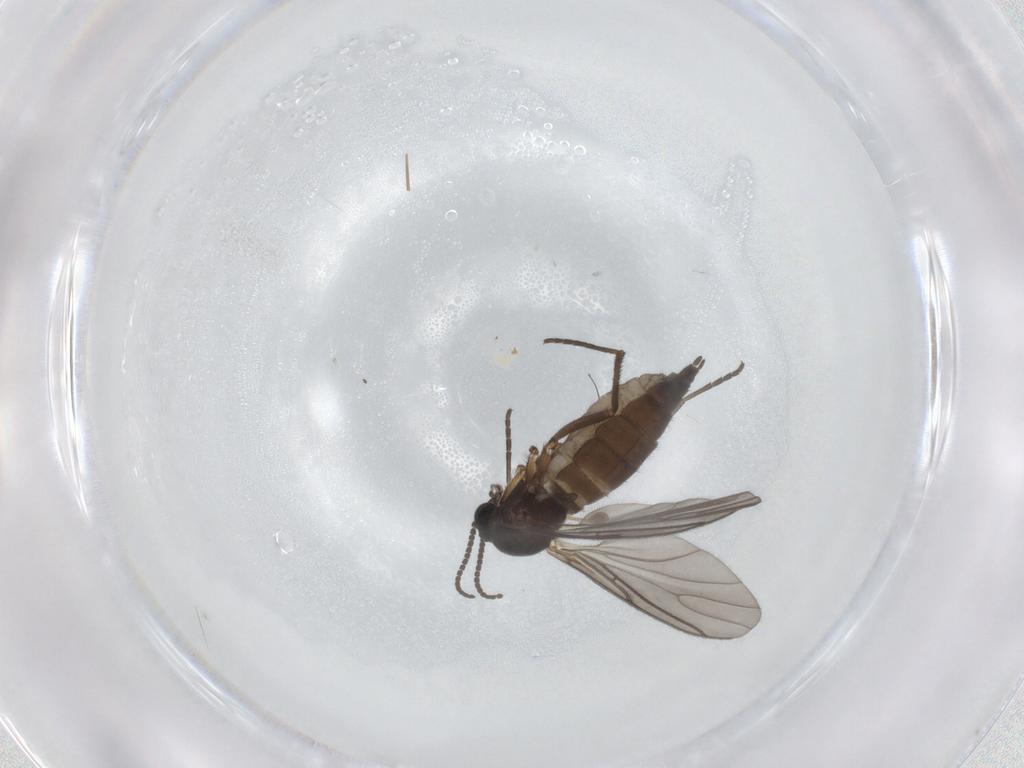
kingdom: Animalia
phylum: Arthropoda
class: Insecta
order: Diptera
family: Sciaridae
